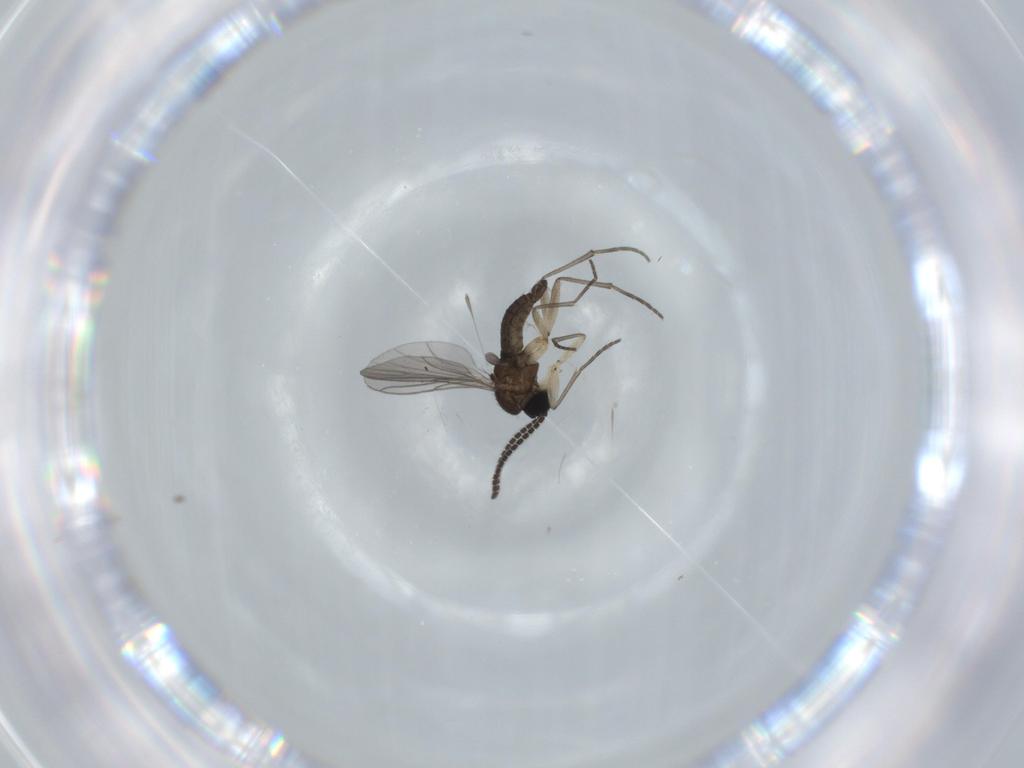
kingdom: Animalia
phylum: Arthropoda
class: Insecta
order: Diptera
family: Sciaridae
